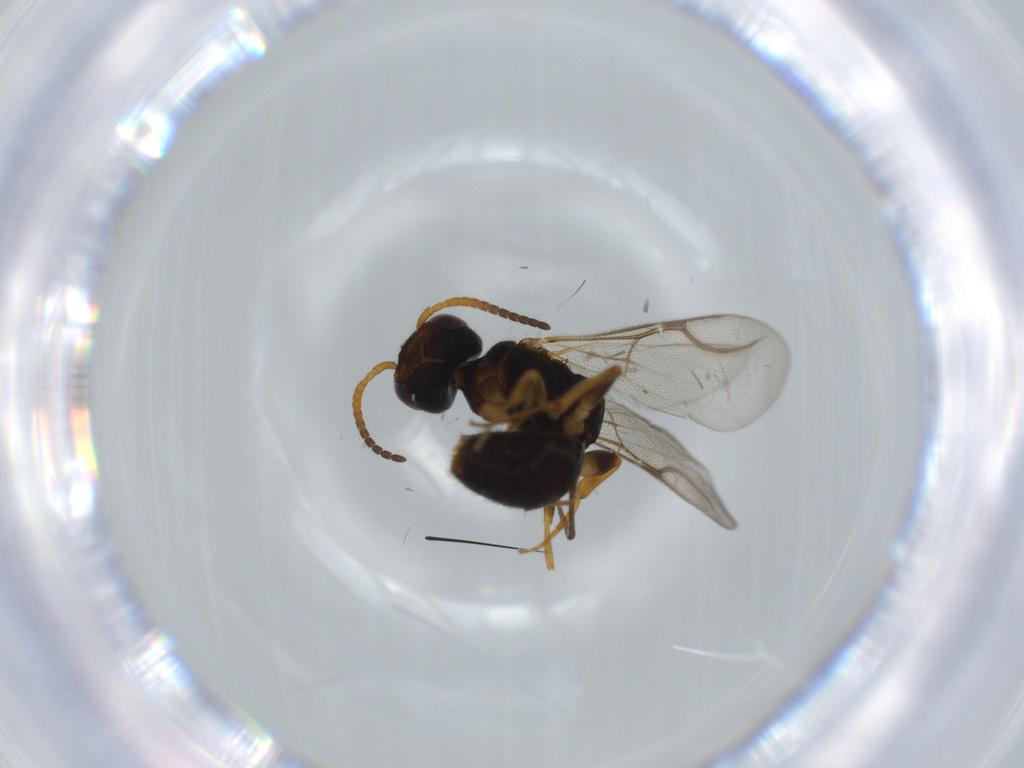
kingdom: Animalia
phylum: Arthropoda
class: Insecta
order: Hymenoptera
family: Bethylidae
